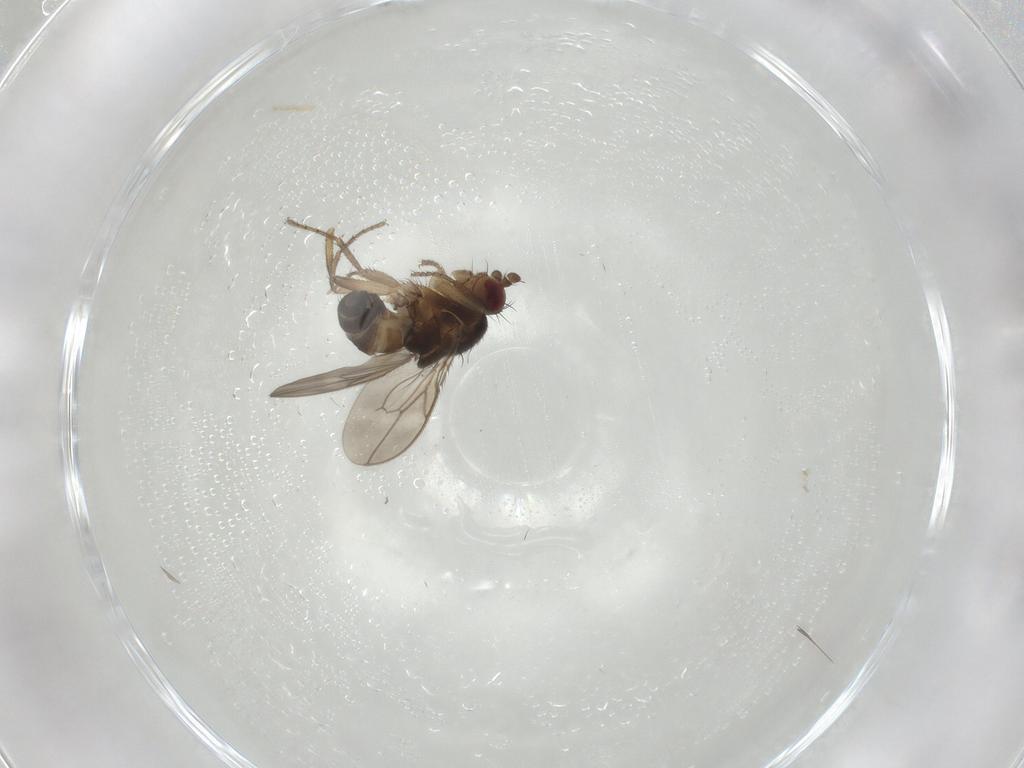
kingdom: Animalia
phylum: Arthropoda
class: Insecta
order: Diptera
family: Sphaeroceridae
